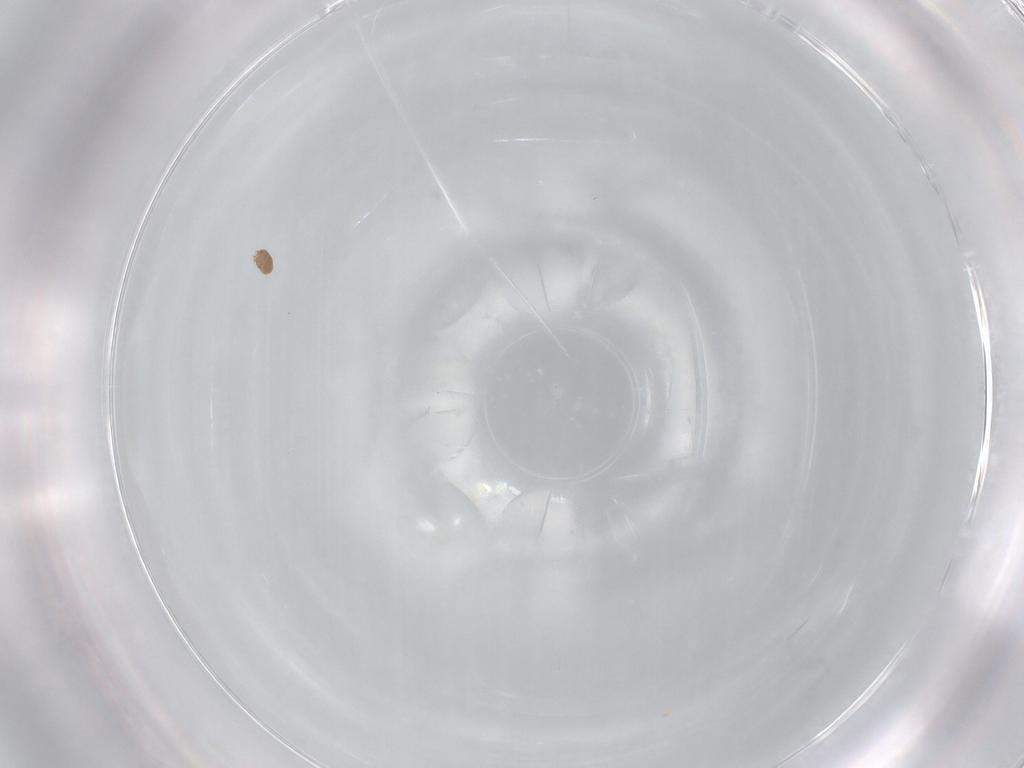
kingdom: Animalia
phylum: Arthropoda
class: Arachnida
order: Trombidiformes
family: Anystidae
